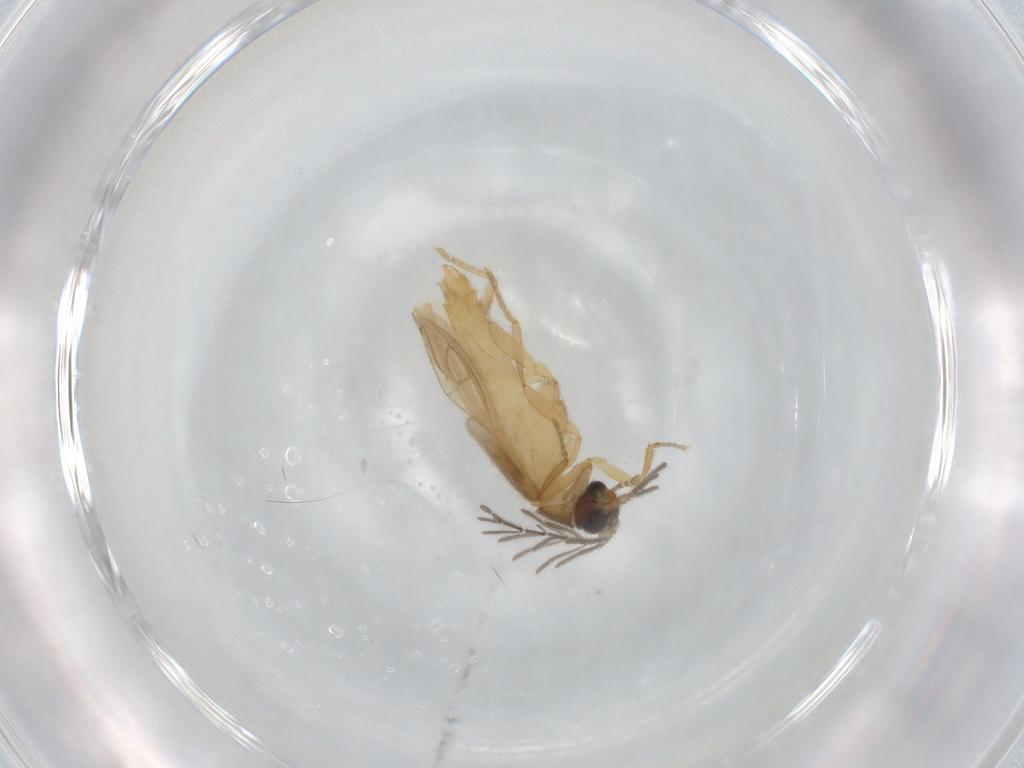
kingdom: Animalia
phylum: Arthropoda
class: Insecta
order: Coleoptera
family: Lampyridae
